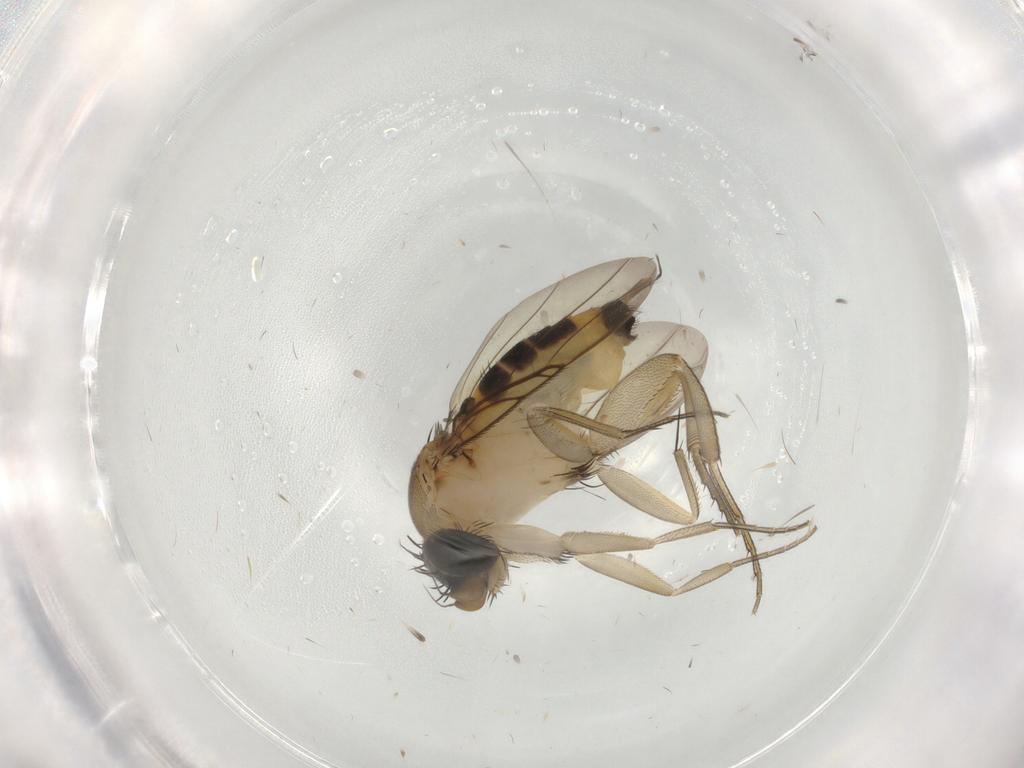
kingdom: Animalia
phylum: Arthropoda
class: Insecta
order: Diptera
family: Phoridae
